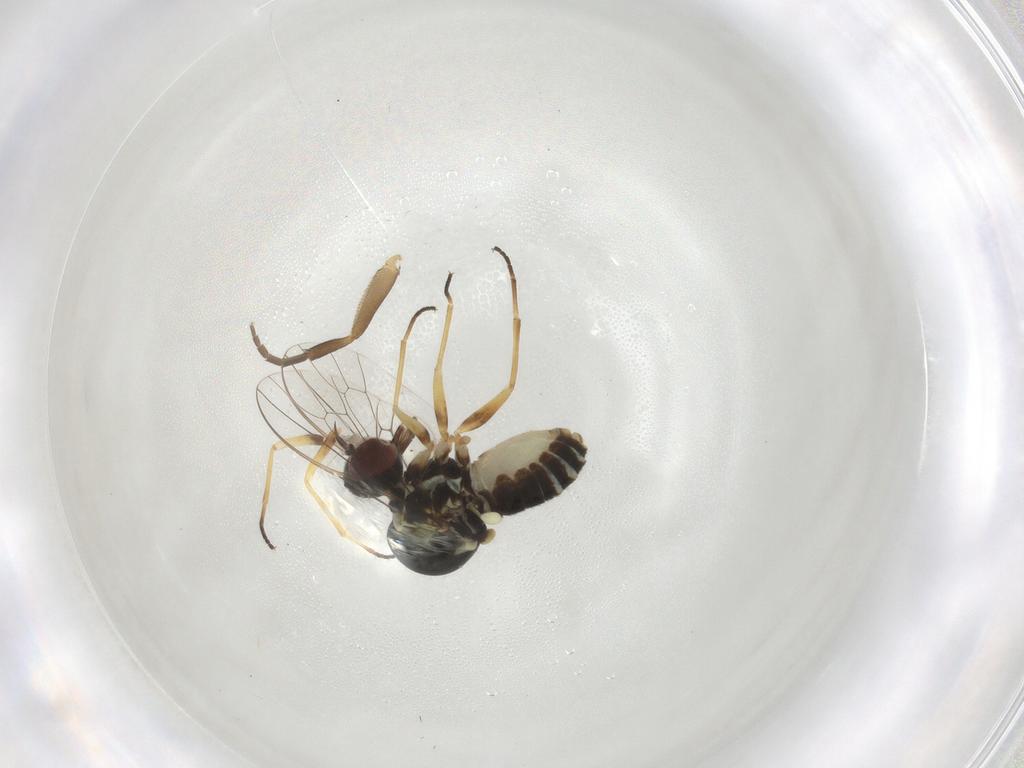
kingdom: Animalia
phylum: Arthropoda
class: Insecta
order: Diptera
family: Phoridae
